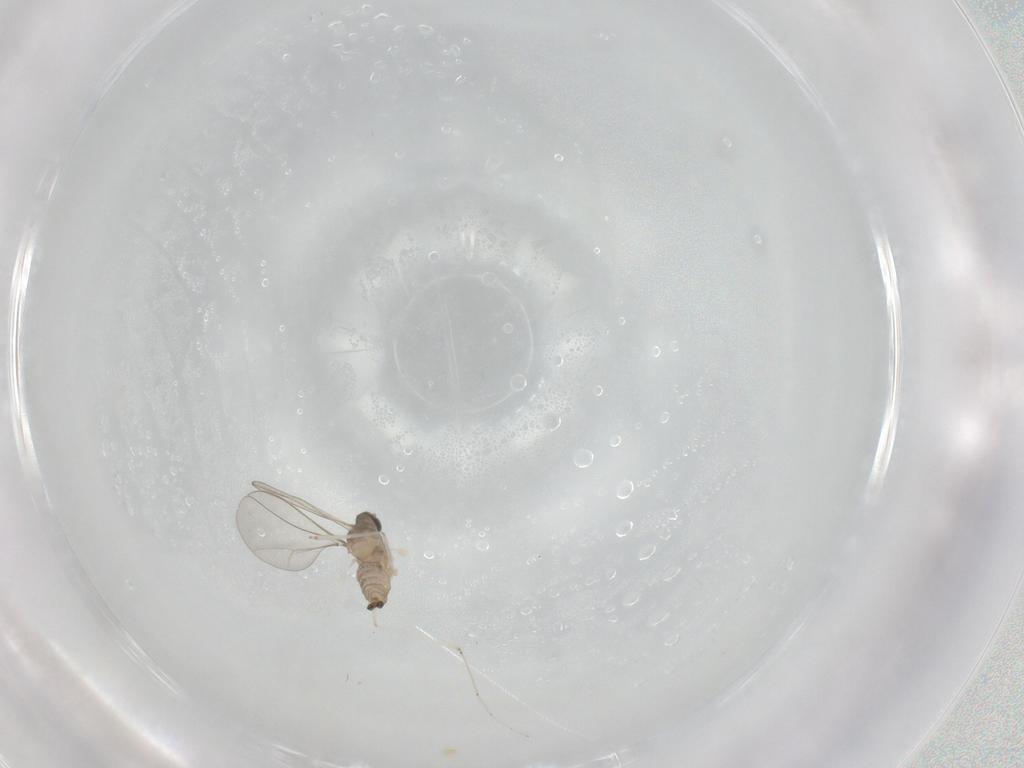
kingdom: Animalia
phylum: Arthropoda
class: Insecta
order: Diptera
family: Cecidomyiidae
